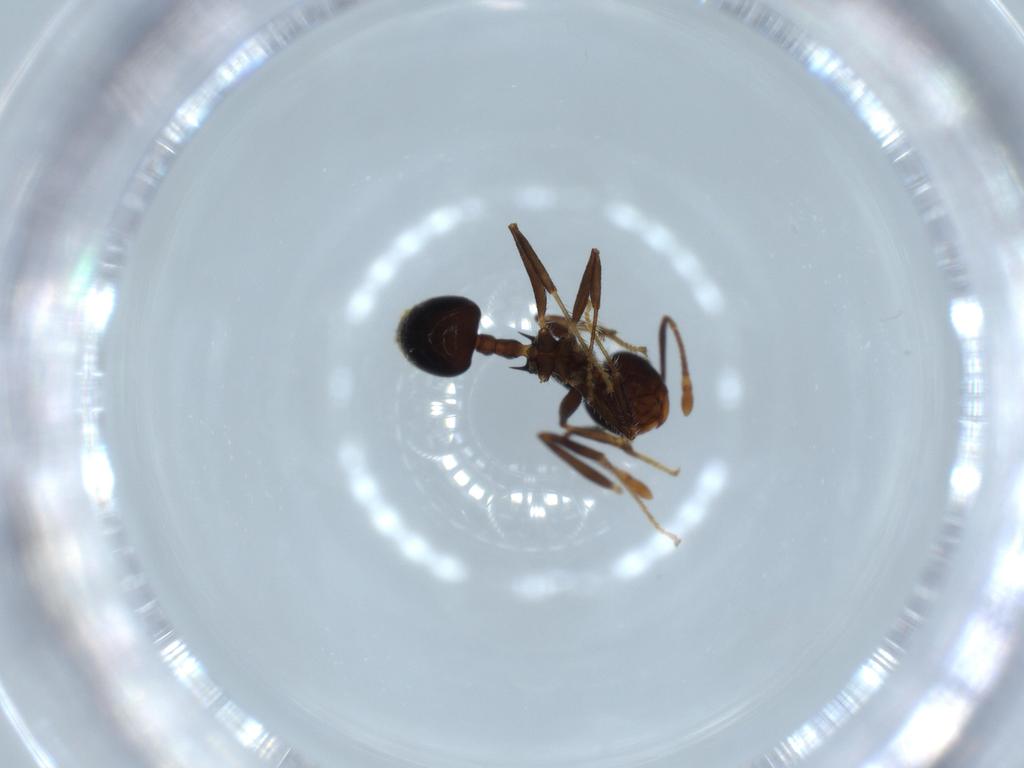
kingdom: Animalia
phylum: Arthropoda
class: Insecta
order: Hymenoptera
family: Formicidae
